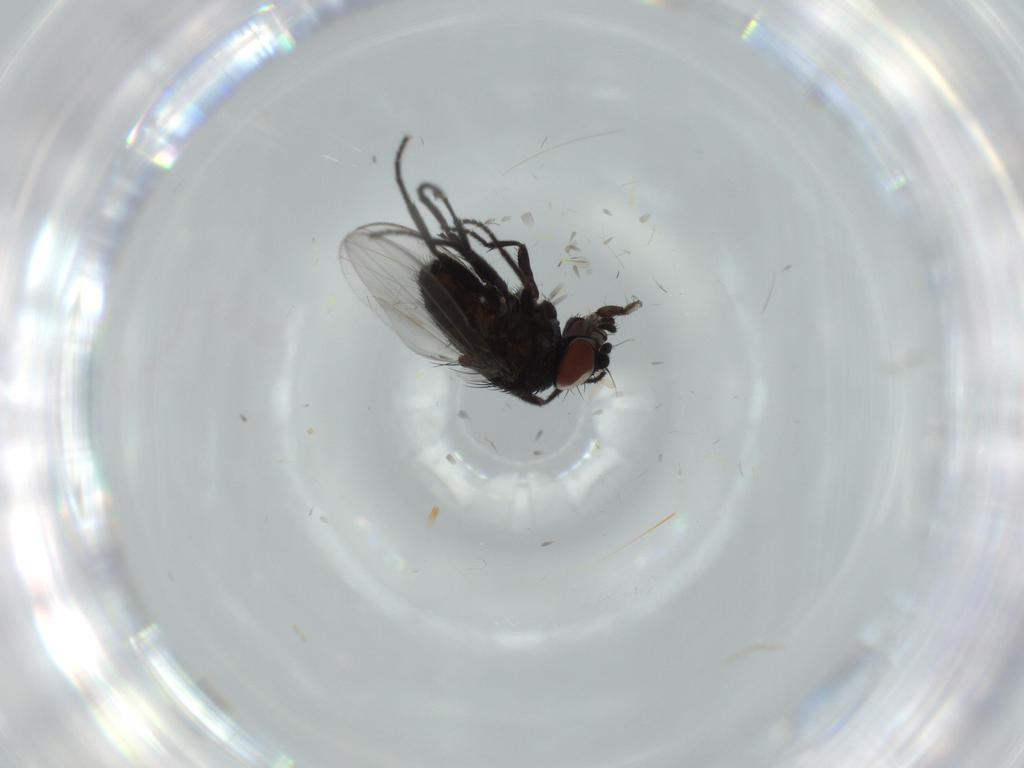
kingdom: Animalia
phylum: Arthropoda
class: Insecta
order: Diptera
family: Milichiidae
